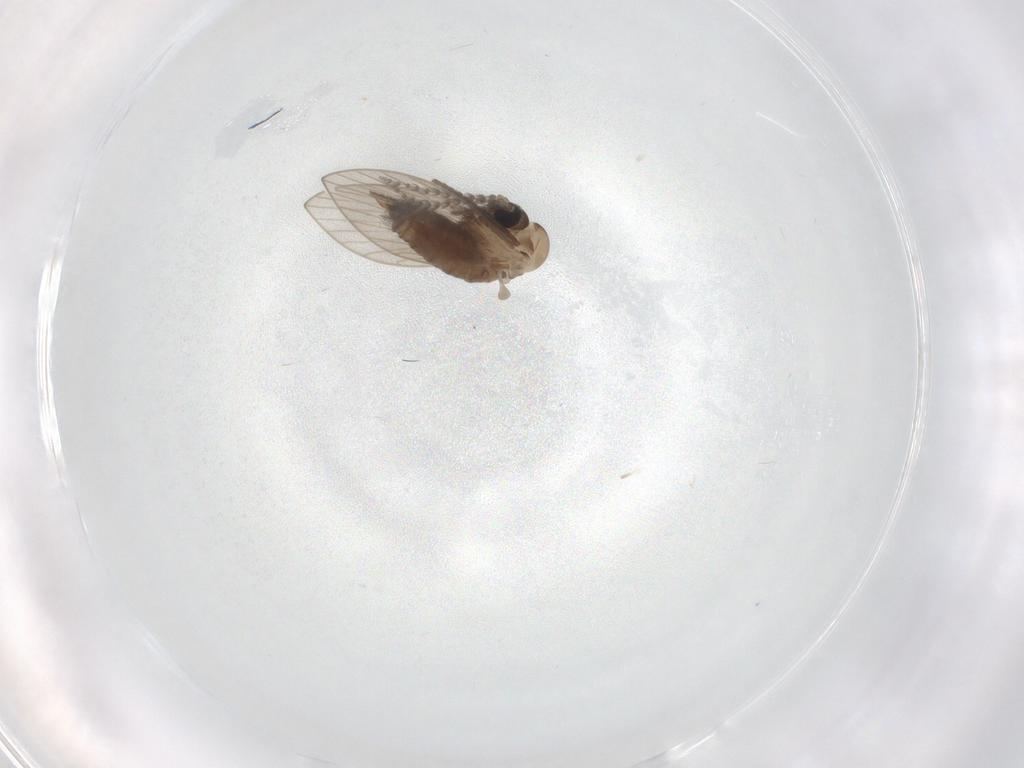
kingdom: Animalia
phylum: Arthropoda
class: Insecta
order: Diptera
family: Psychodidae
